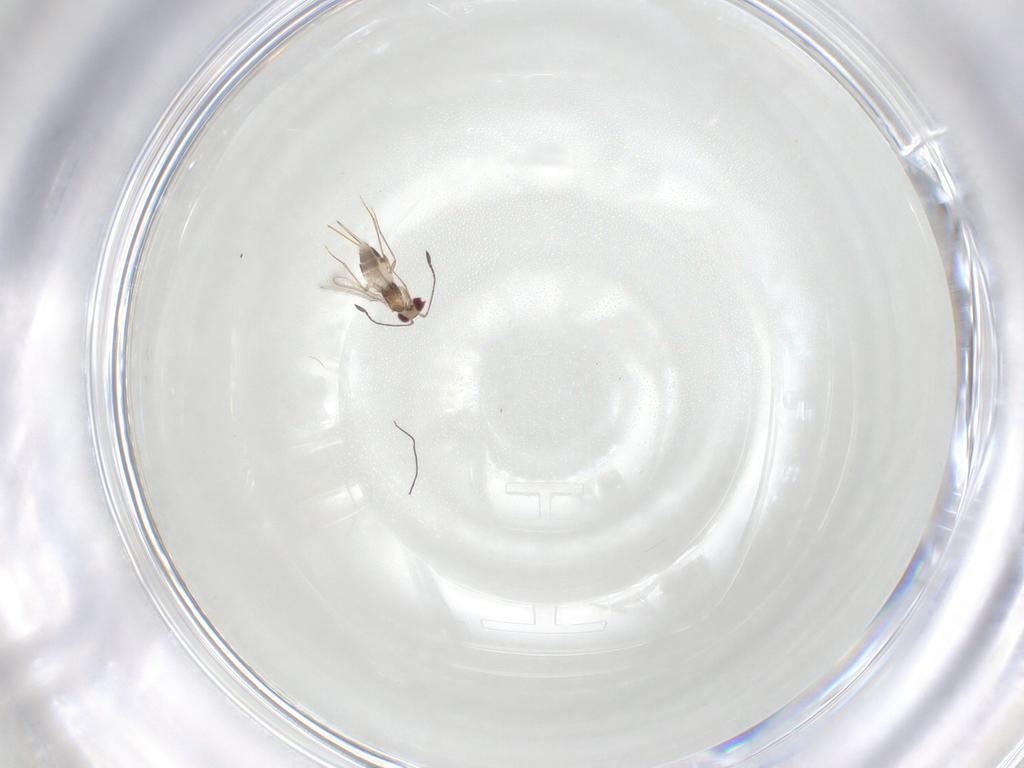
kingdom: Animalia
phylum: Arthropoda
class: Insecta
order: Hymenoptera
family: Mymaridae
